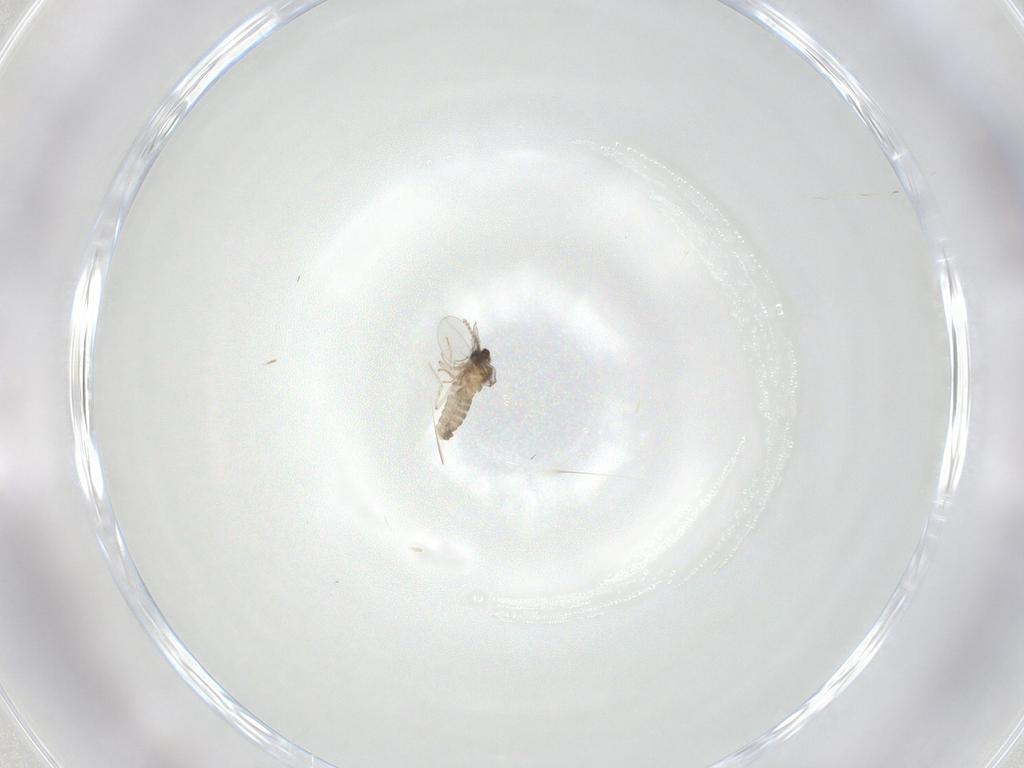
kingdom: Animalia
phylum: Arthropoda
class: Insecta
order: Diptera
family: Cecidomyiidae
